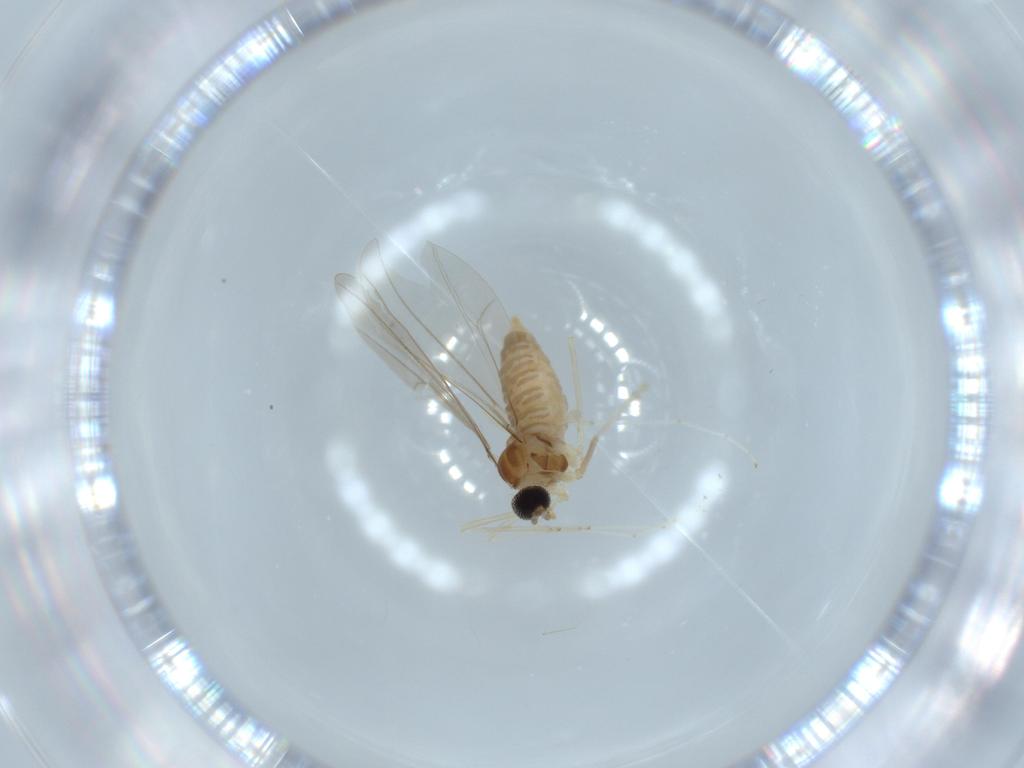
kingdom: Animalia
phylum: Arthropoda
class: Insecta
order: Diptera
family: Cecidomyiidae
